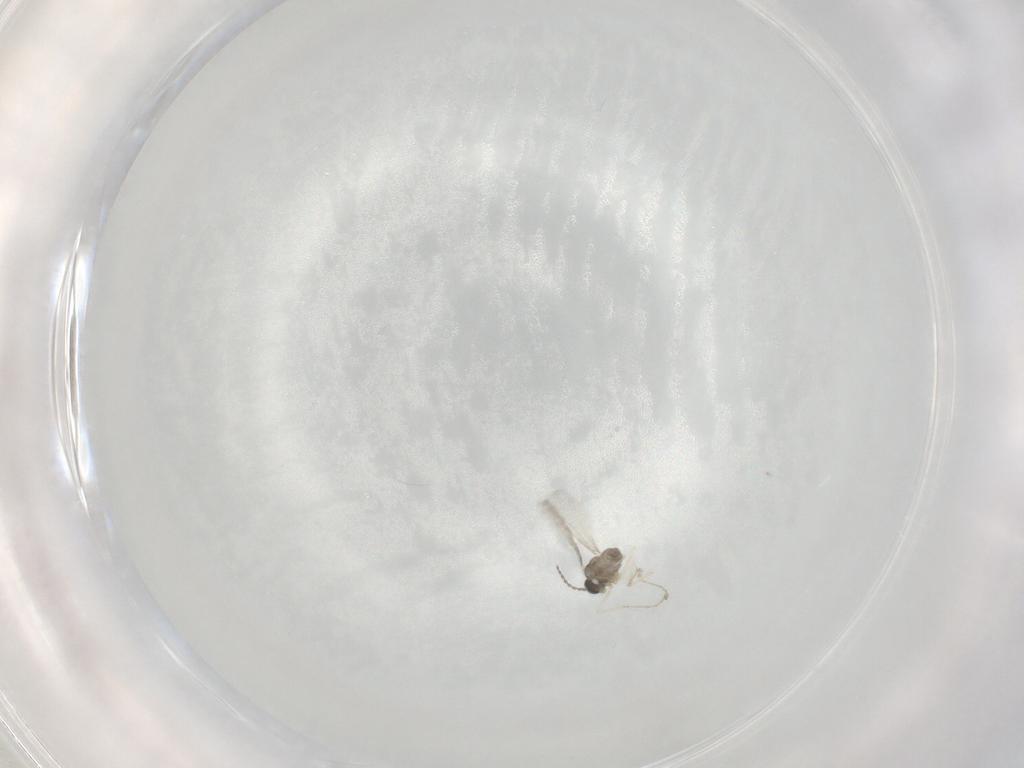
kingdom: Animalia
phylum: Arthropoda
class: Insecta
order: Diptera
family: Cecidomyiidae
